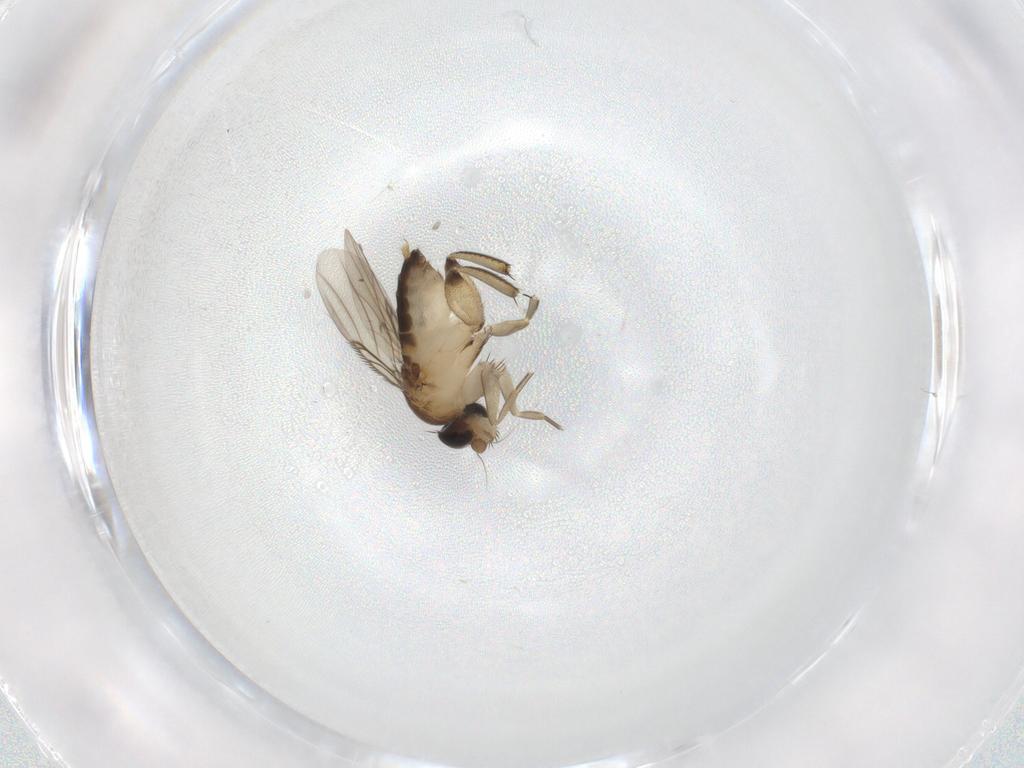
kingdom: Animalia
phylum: Arthropoda
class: Insecta
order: Diptera
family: Phoridae
